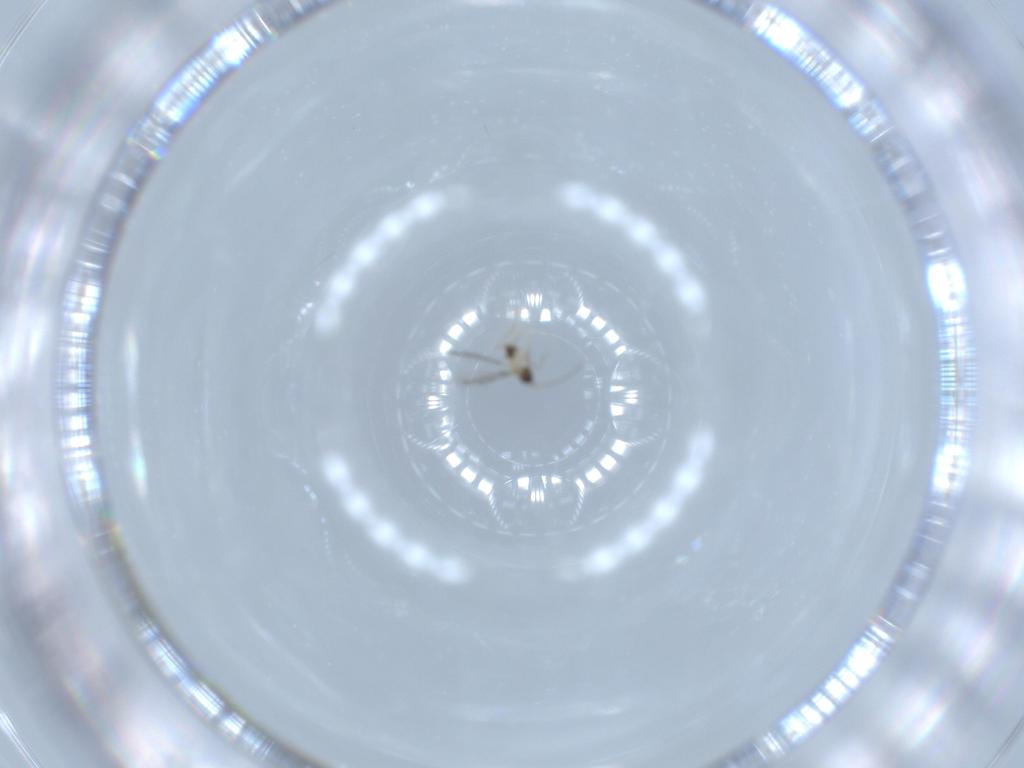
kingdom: Animalia
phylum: Arthropoda
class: Insecta
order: Hymenoptera
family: Mymaridae
